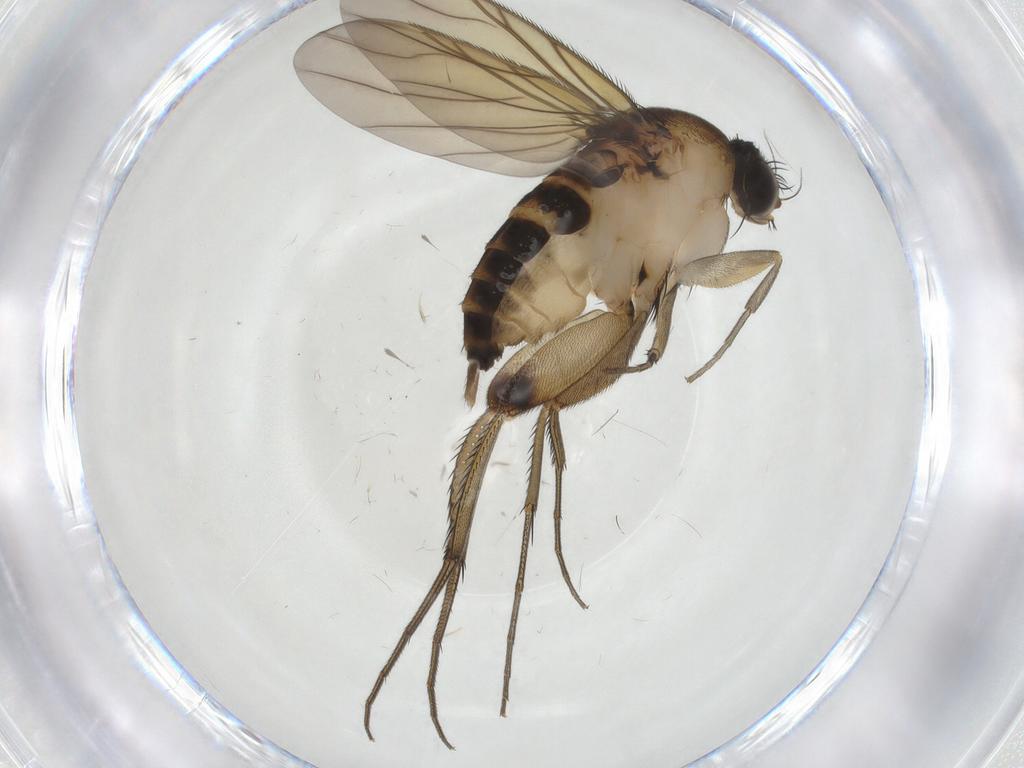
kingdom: Animalia
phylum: Arthropoda
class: Insecta
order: Diptera
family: Phoridae
